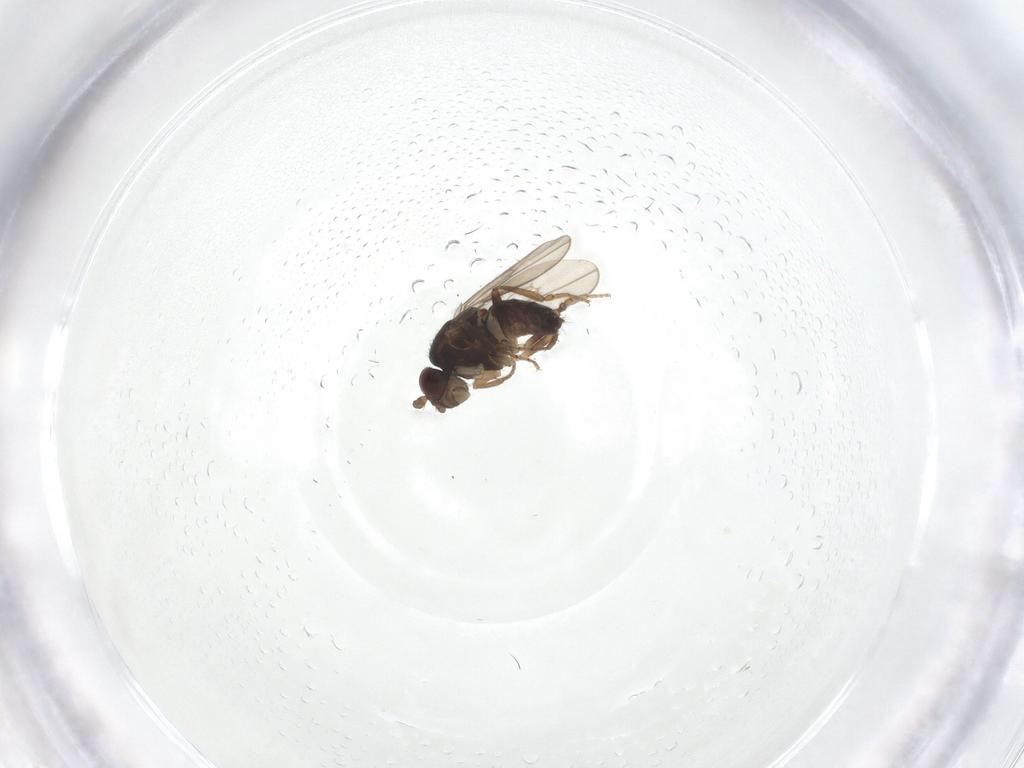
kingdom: Animalia
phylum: Arthropoda
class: Insecta
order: Diptera
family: Sphaeroceridae
